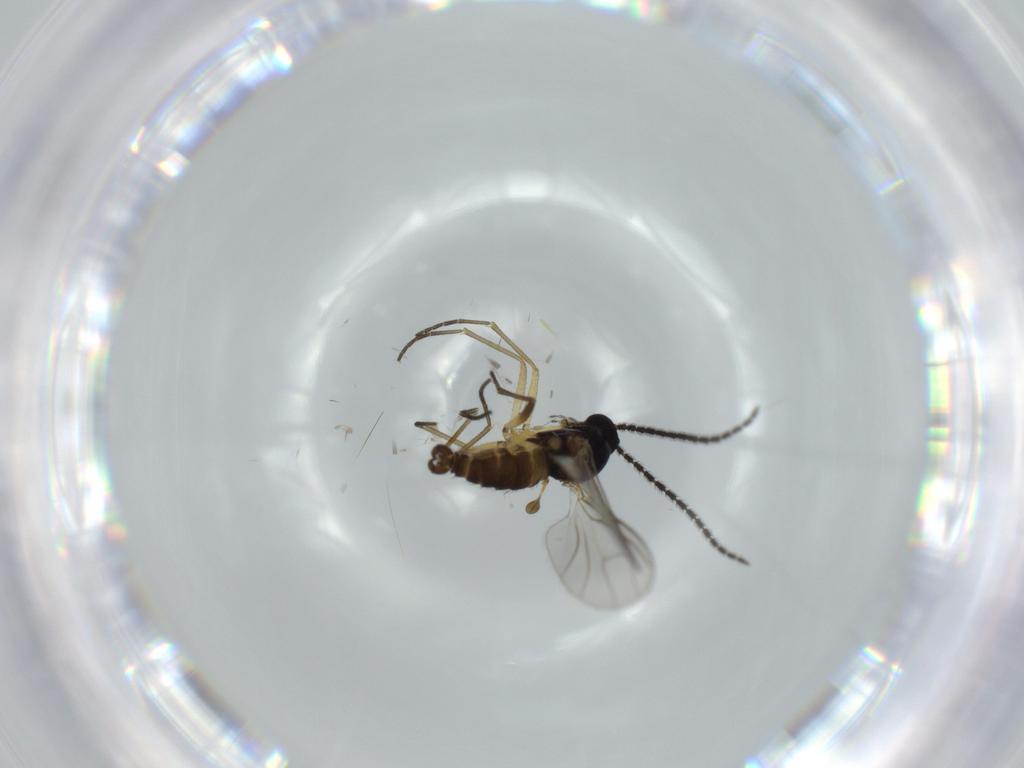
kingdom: Animalia
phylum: Arthropoda
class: Insecta
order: Diptera
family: Sciaridae
